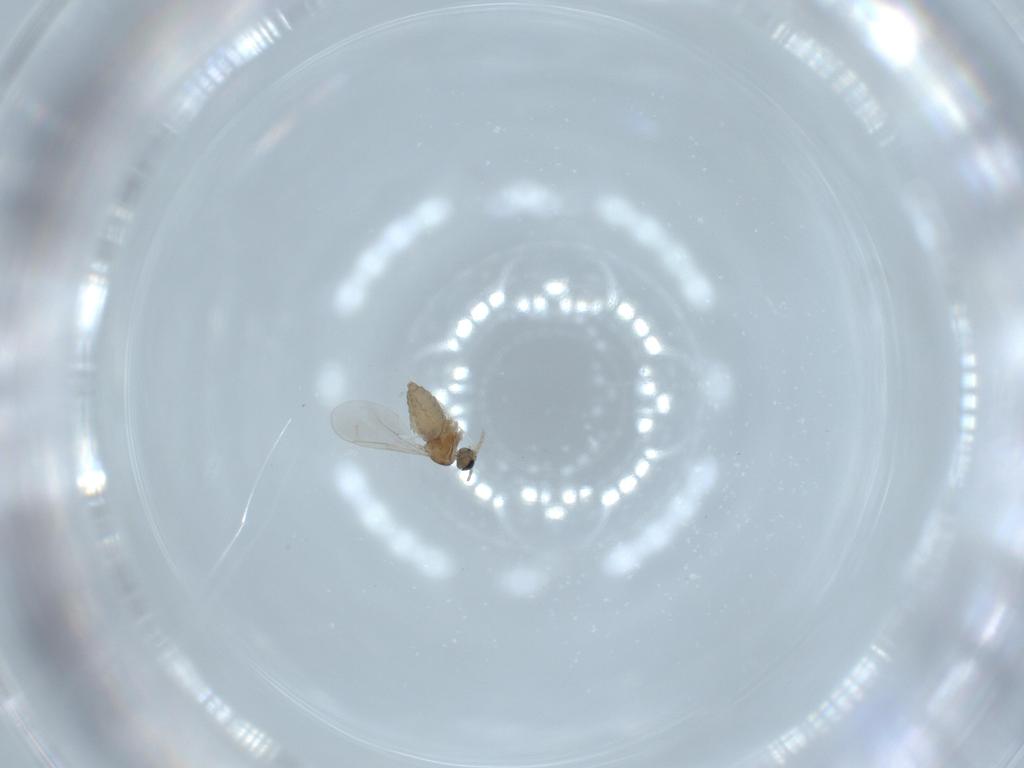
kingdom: Animalia
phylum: Arthropoda
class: Insecta
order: Diptera
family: Cecidomyiidae
